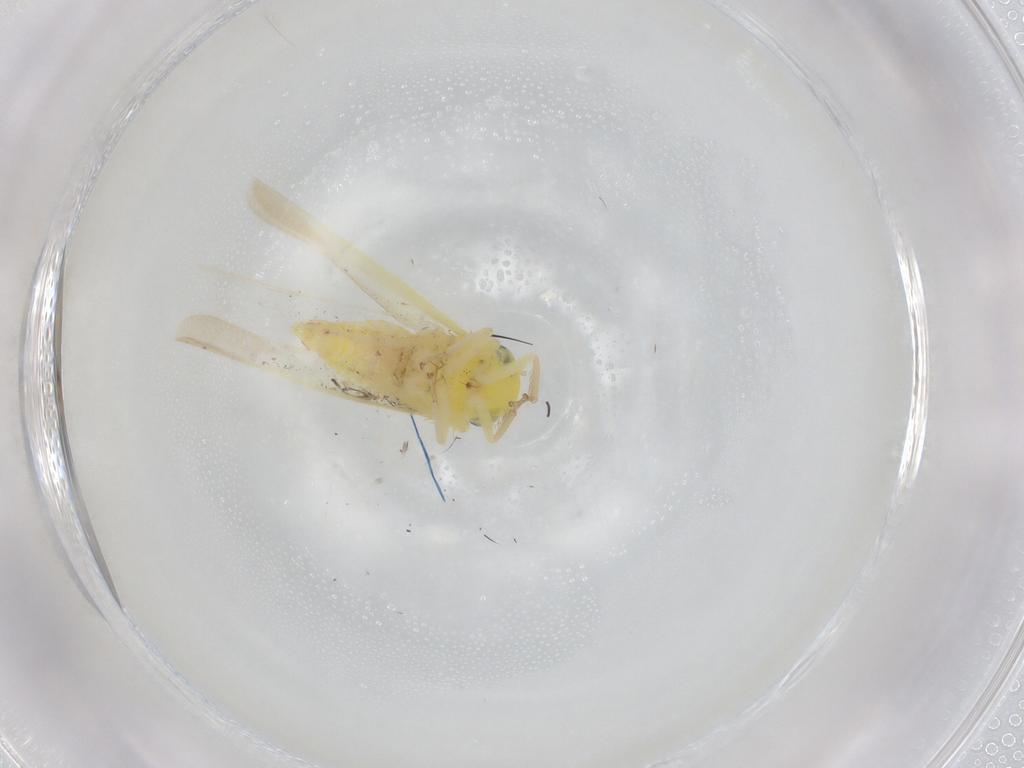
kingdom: Animalia
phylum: Arthropoda
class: Insecta
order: Hemiptera
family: Cicadellidae
